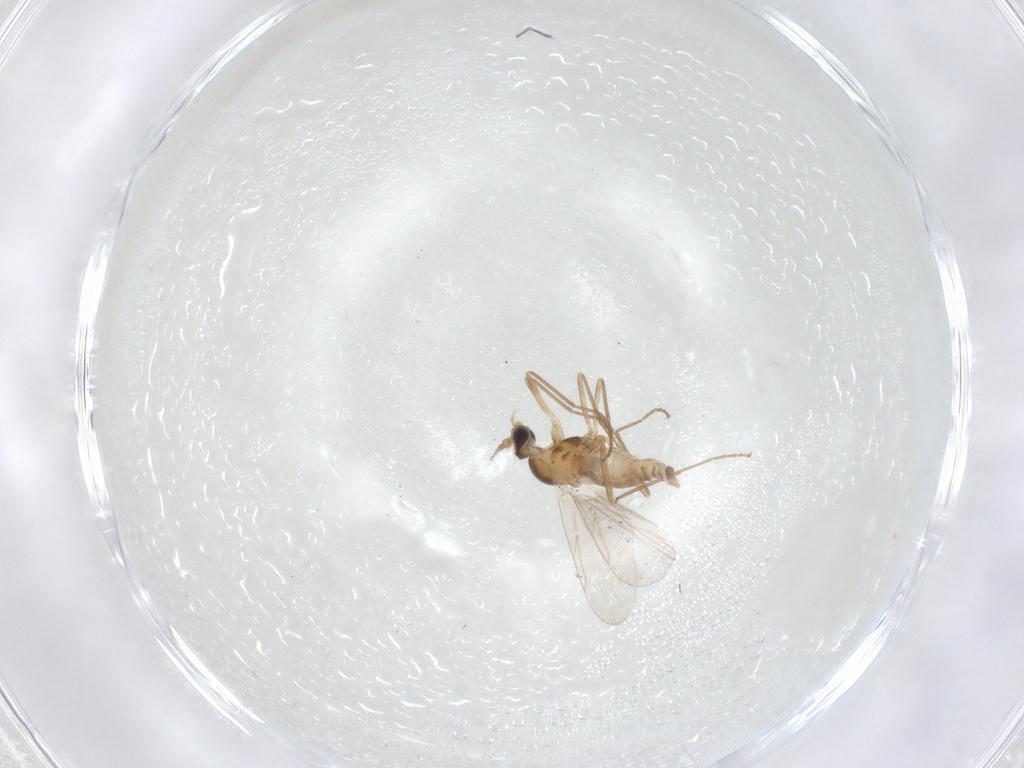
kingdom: Animalia
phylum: Arthropoda
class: Insecta
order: Diptera
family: Cecidomyiidae
